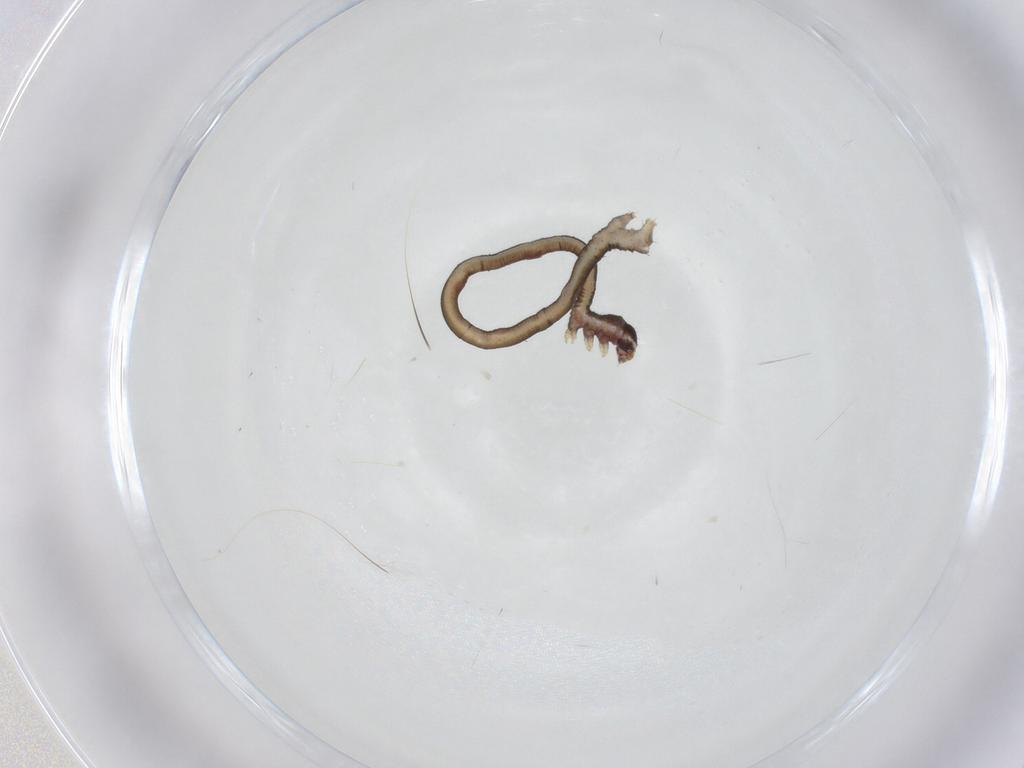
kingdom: Animalia
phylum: Arthropoda
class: Insecta
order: Lepidoptera
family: Geometridae
